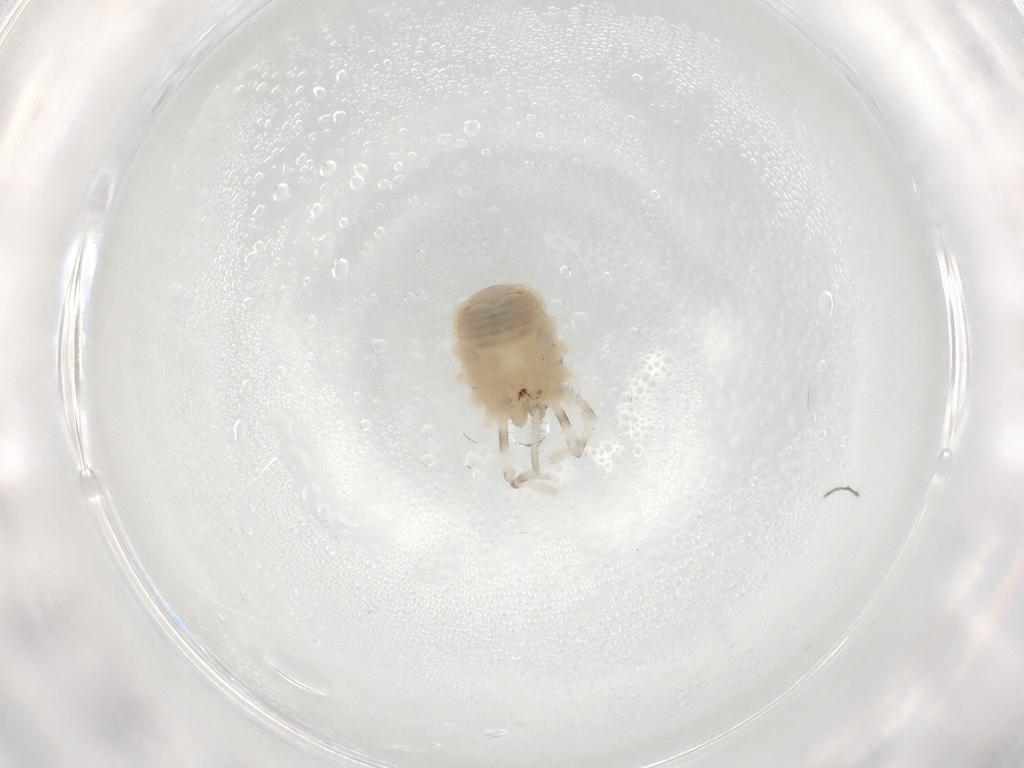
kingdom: Animalia
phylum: Arthropoda
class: Arachnida
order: Opiliones
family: Sclerosomatidae
